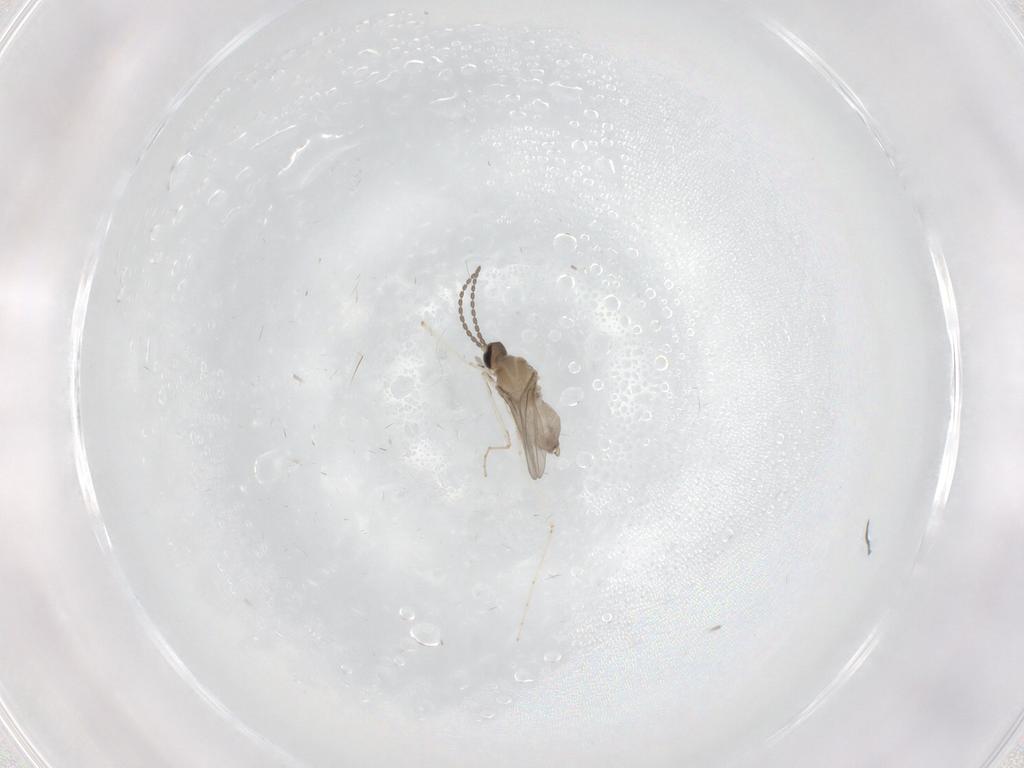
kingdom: Animalia
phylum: Arthropoda
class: Insecta
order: Diptera
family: Cecidomyiidae
